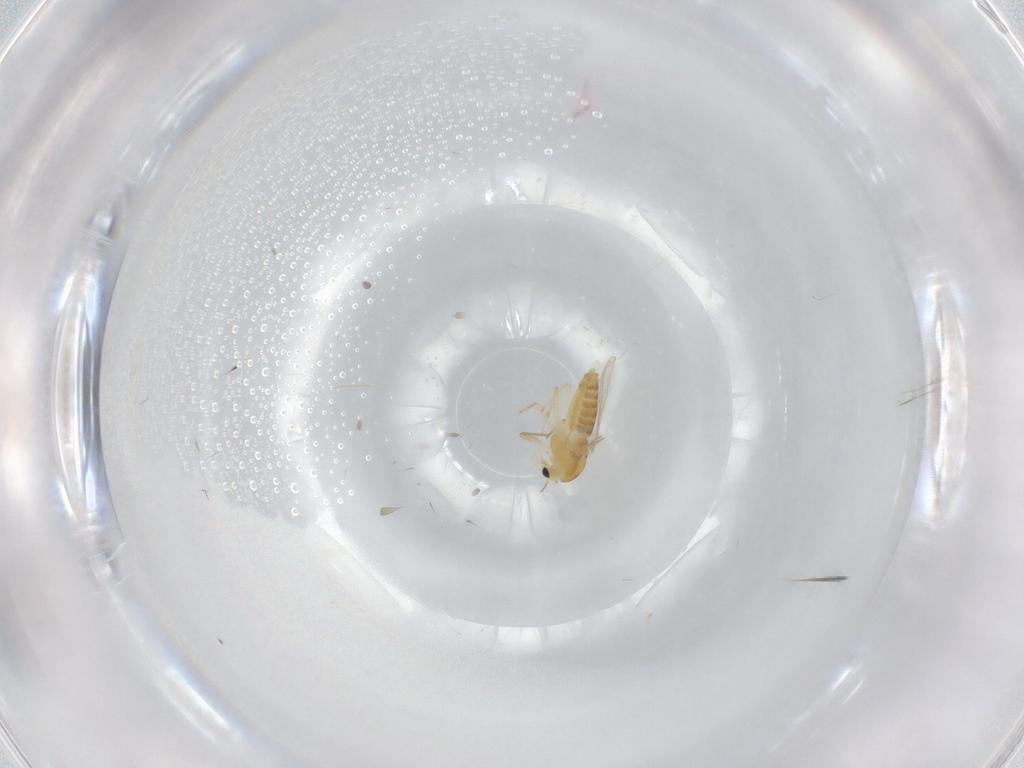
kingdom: Animalia
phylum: Arthropoda
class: Insecta
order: Diptera
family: Chironomidae
